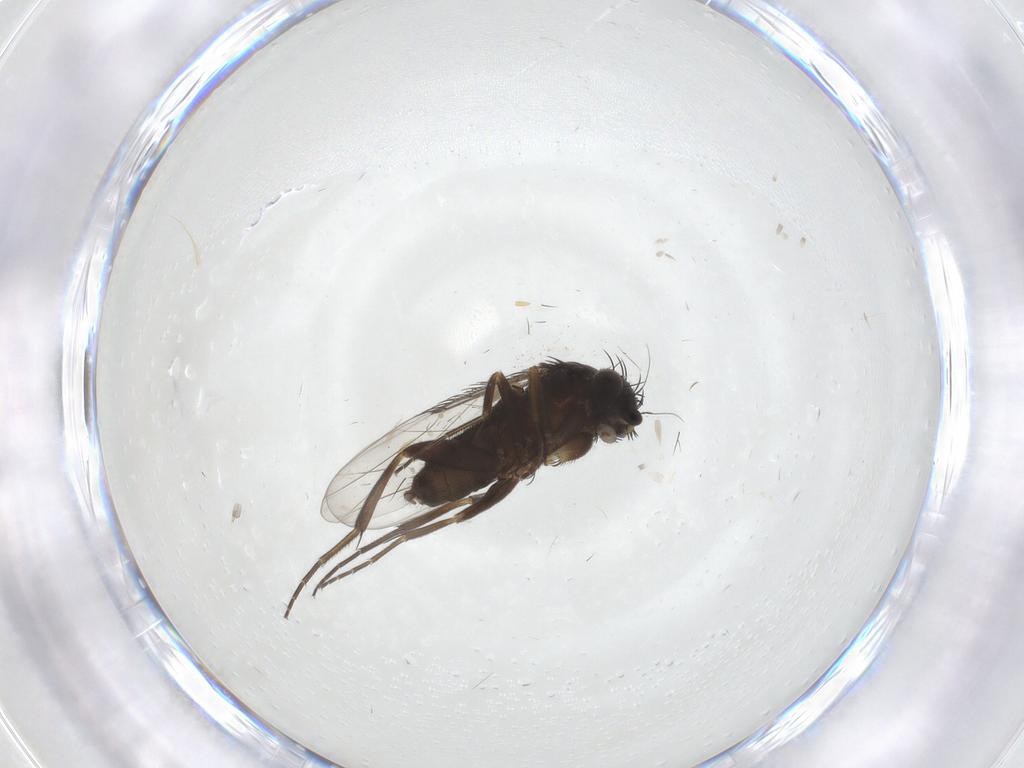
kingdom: Animalia
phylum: Arthropoda
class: Insecta
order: Diptera
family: Phoridae
